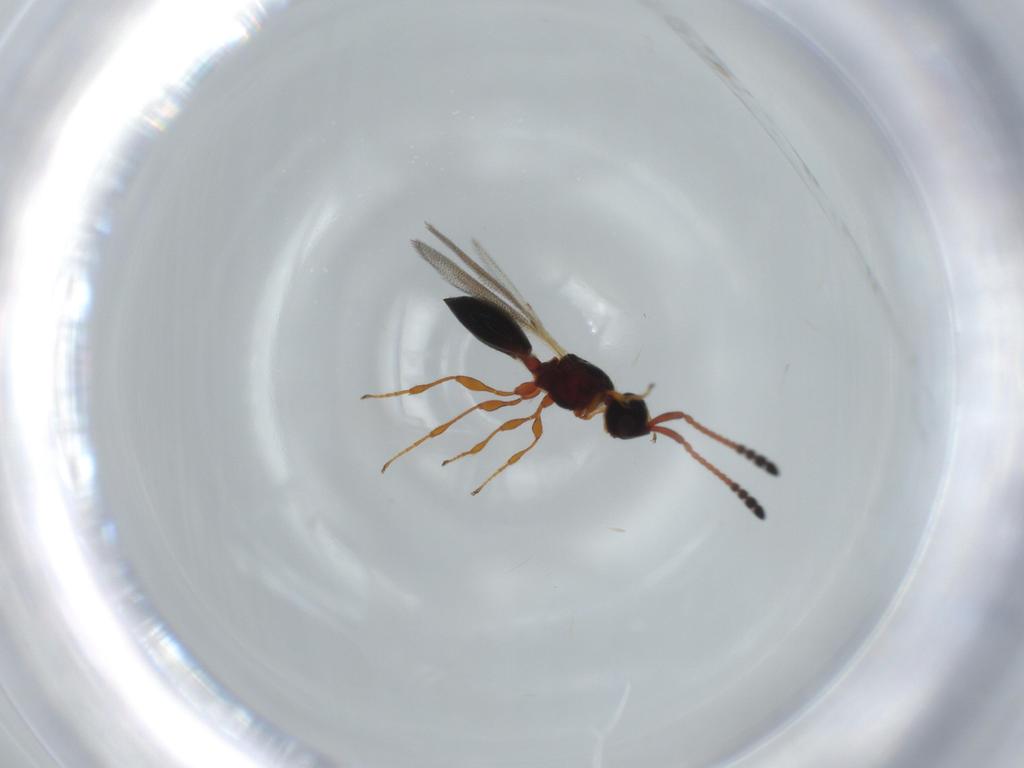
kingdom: Animalia
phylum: Arthropoda
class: Insecta
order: Hymenoptera
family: Diapriidae
